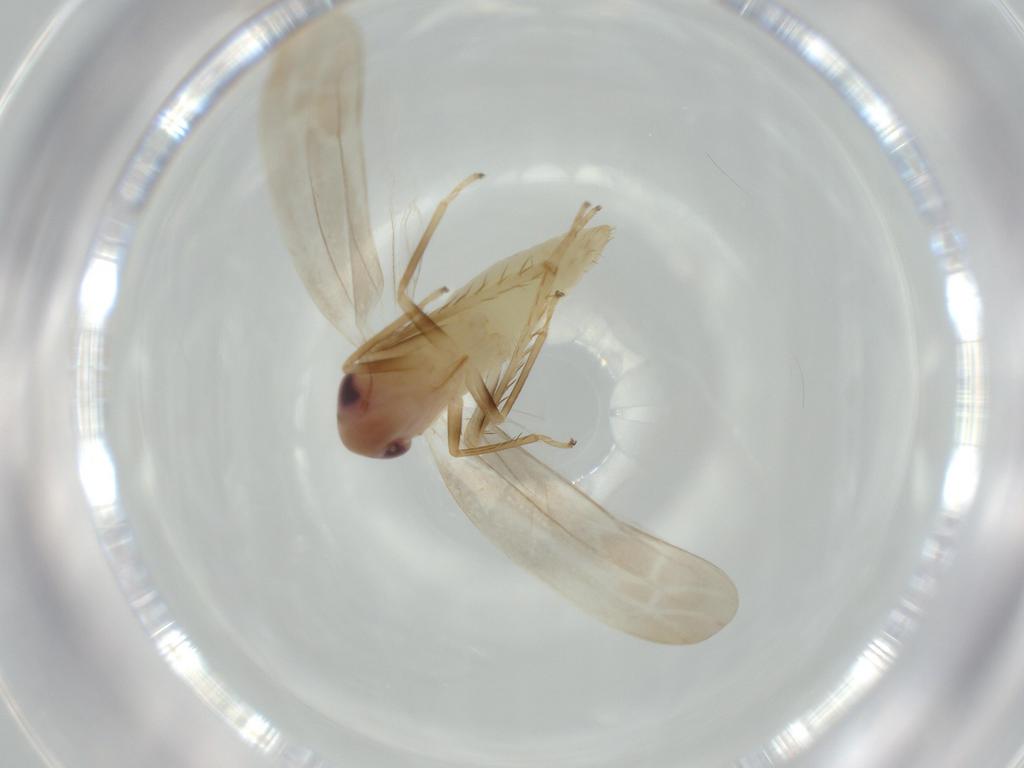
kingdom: Animalia
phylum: Arthropoda
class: Insecta
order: Hemiptera
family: Cicadellidae
